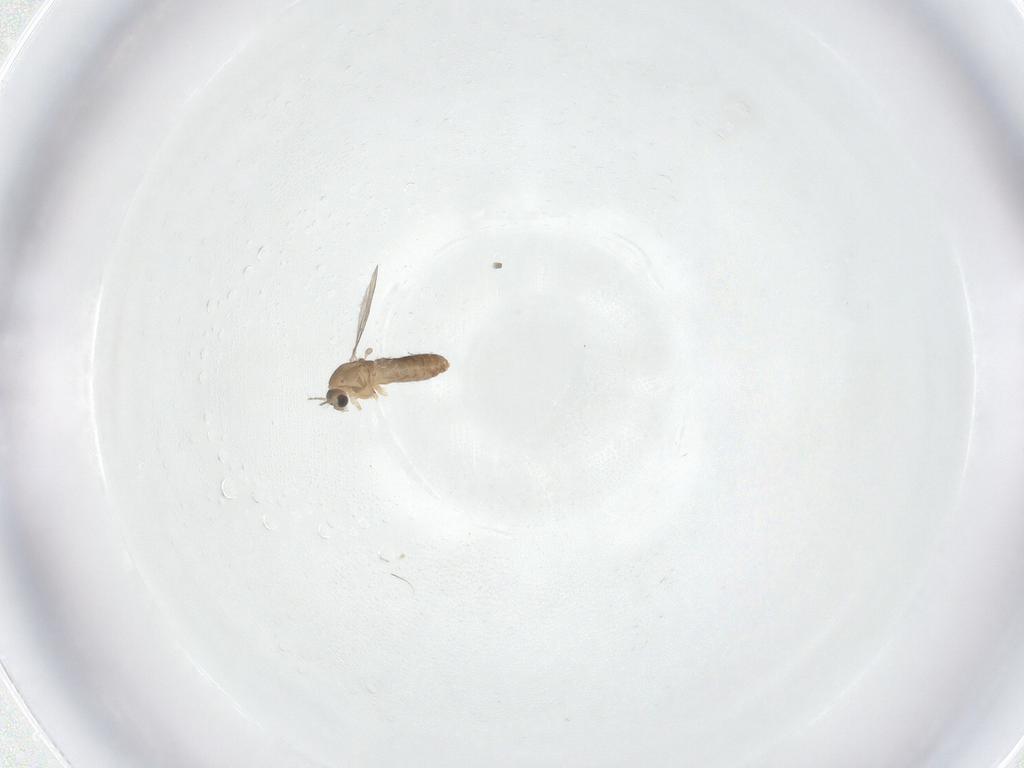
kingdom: Animalia
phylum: Arthropoda
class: Insecta
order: Diptera
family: Chironomidae
